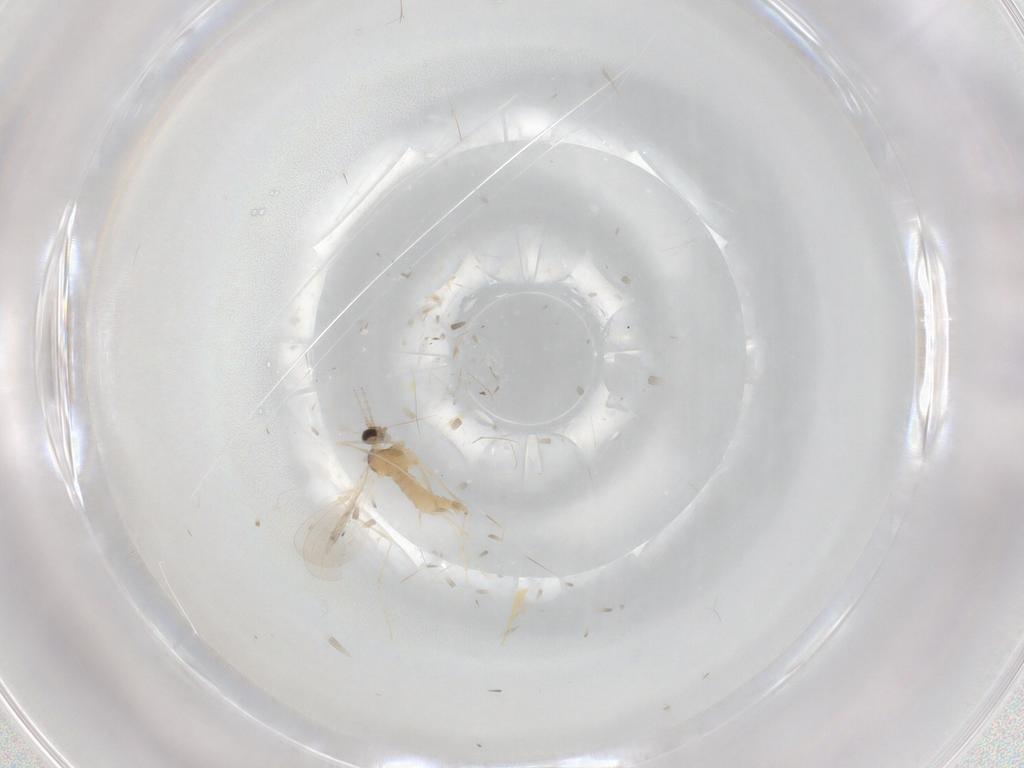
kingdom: Animalia
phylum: Arthropoda
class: Insecta
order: Diptera
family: Cecidomyiidae
